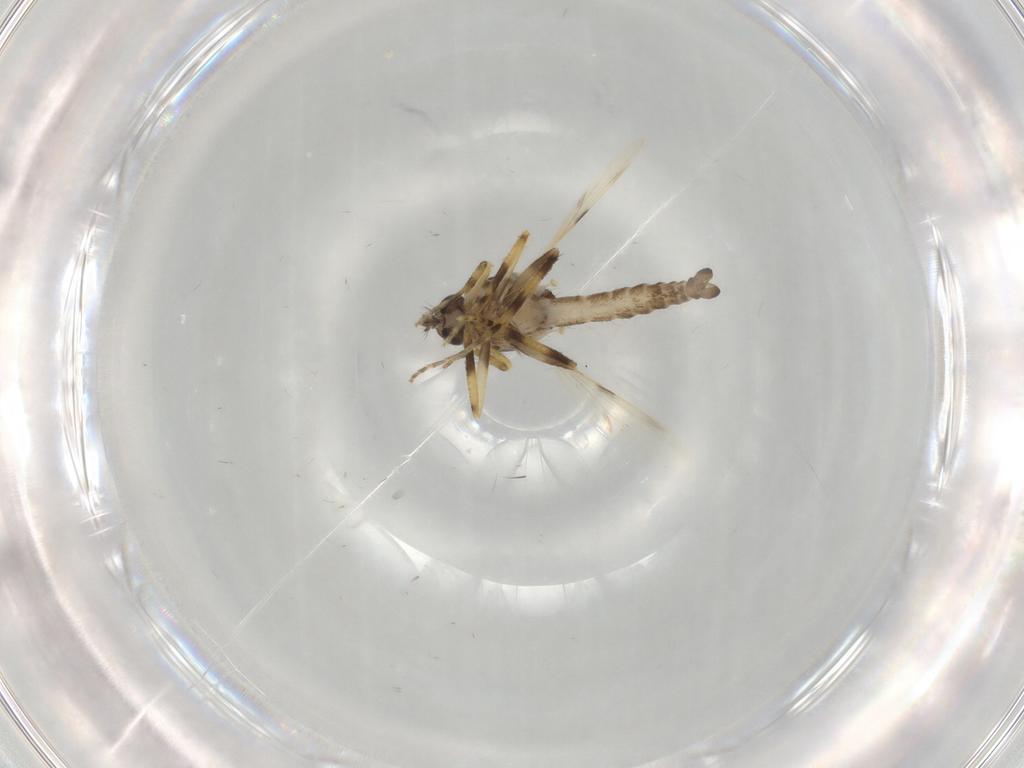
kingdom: Animalia
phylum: Arthropoda
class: Insecta
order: Diptera
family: Ceratopogonidae
